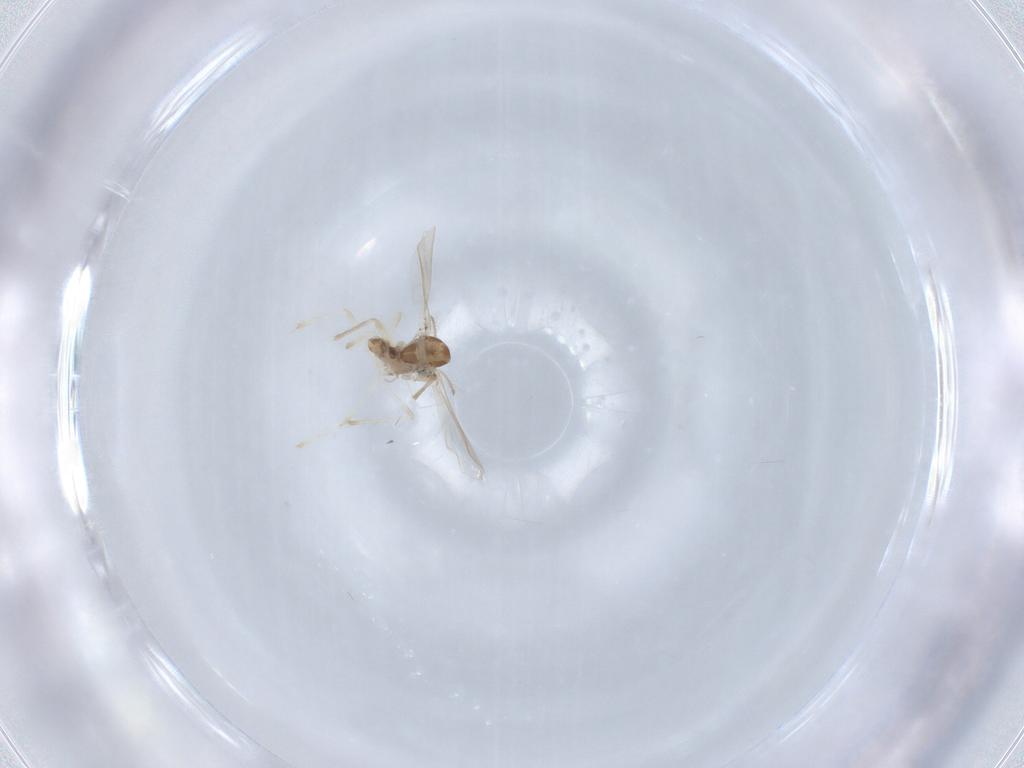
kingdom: Animalia
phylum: Arthropoda
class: Insecta
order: Diptera
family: Chironomidae
